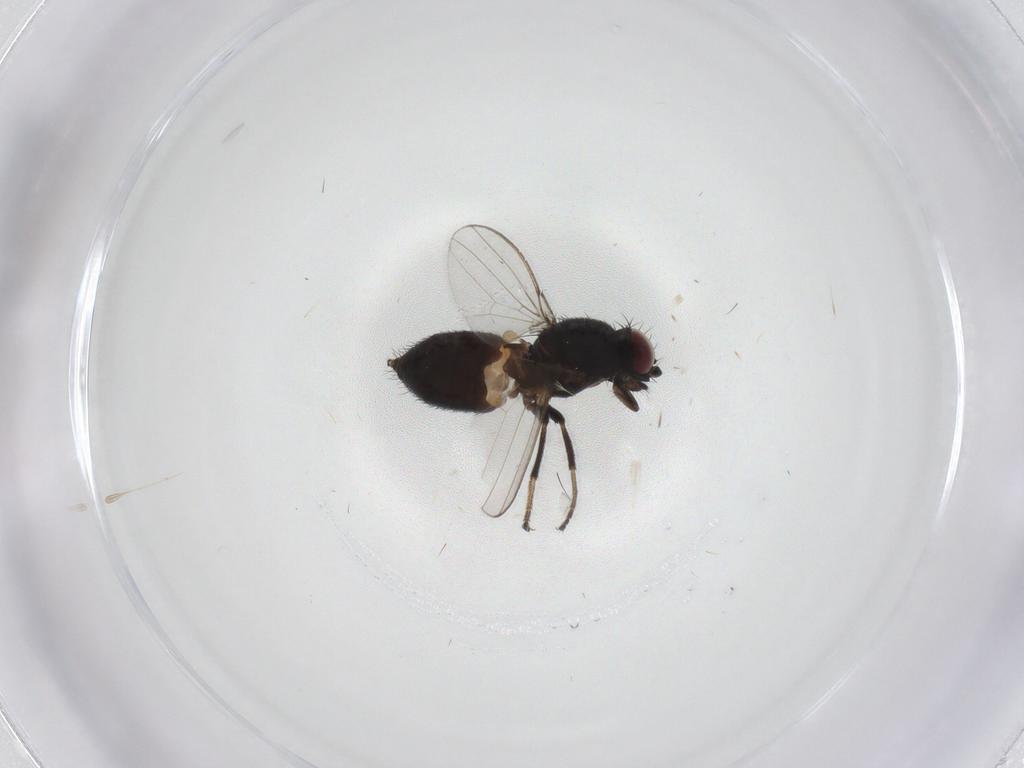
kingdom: Animalia
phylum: Arthropoda
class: Insecta
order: Diptera
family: Milichiidae
